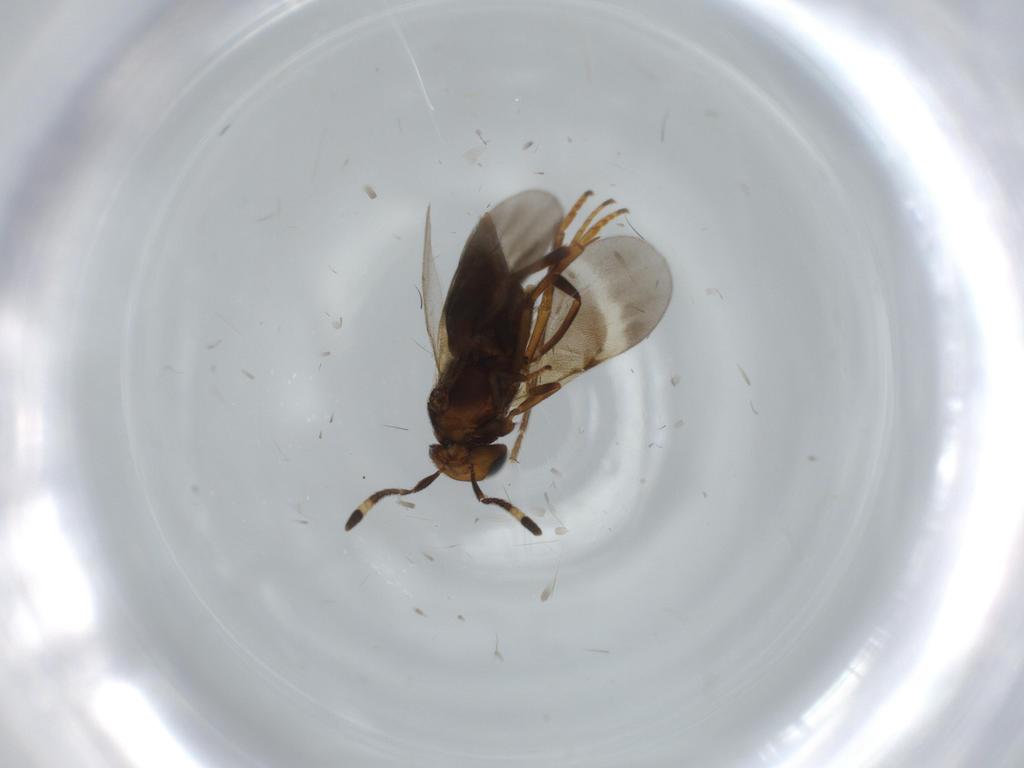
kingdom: Animalia
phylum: Arthropoda
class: Insecta
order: Hymenoptera
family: Encyrtidae
